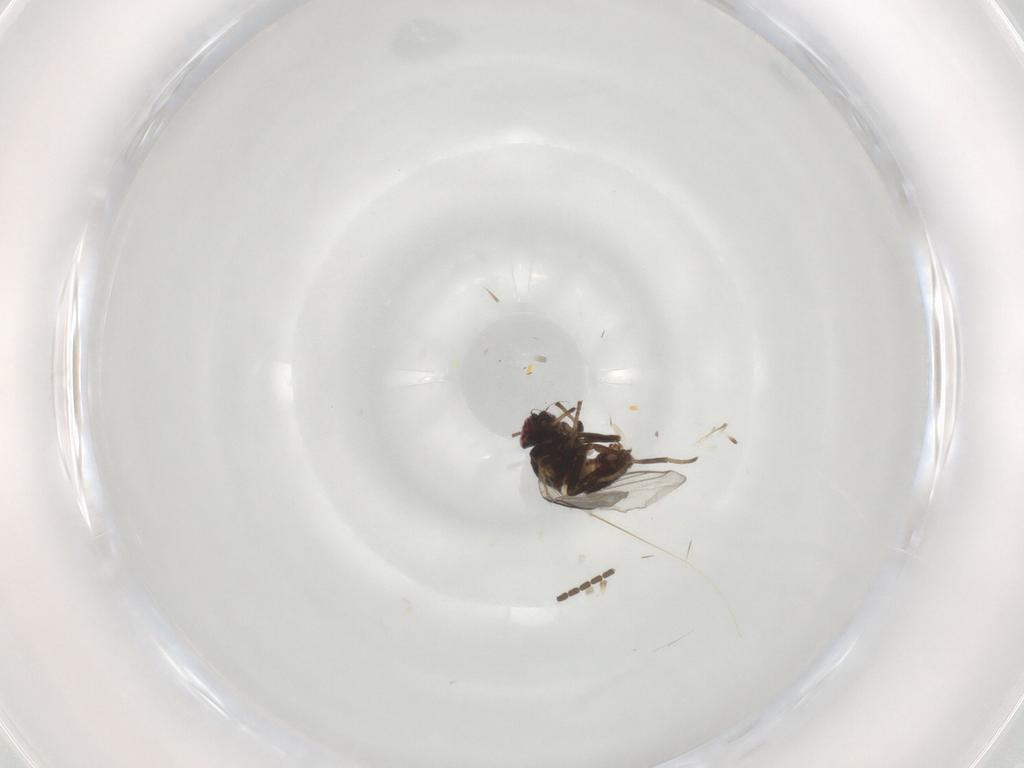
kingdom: Animalia
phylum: Arthropoda
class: Insecta
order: Diptera
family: Sciaridae
